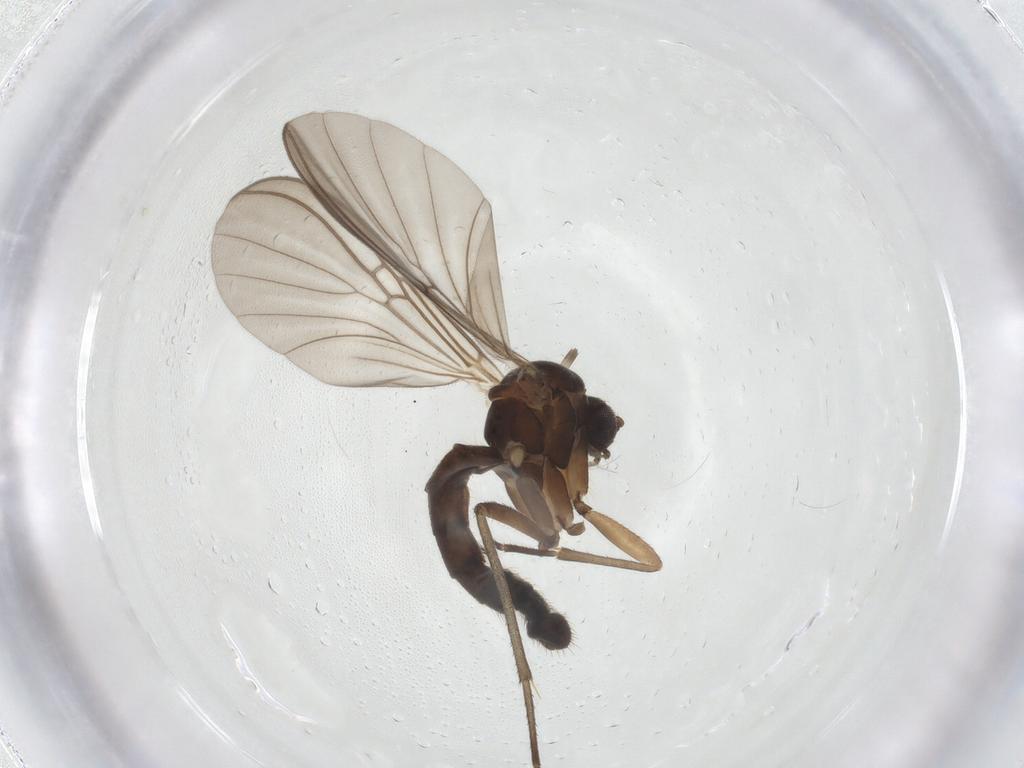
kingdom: Animalia
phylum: Arthropoda
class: Insecta
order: Diptera
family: Mycetophilidae
